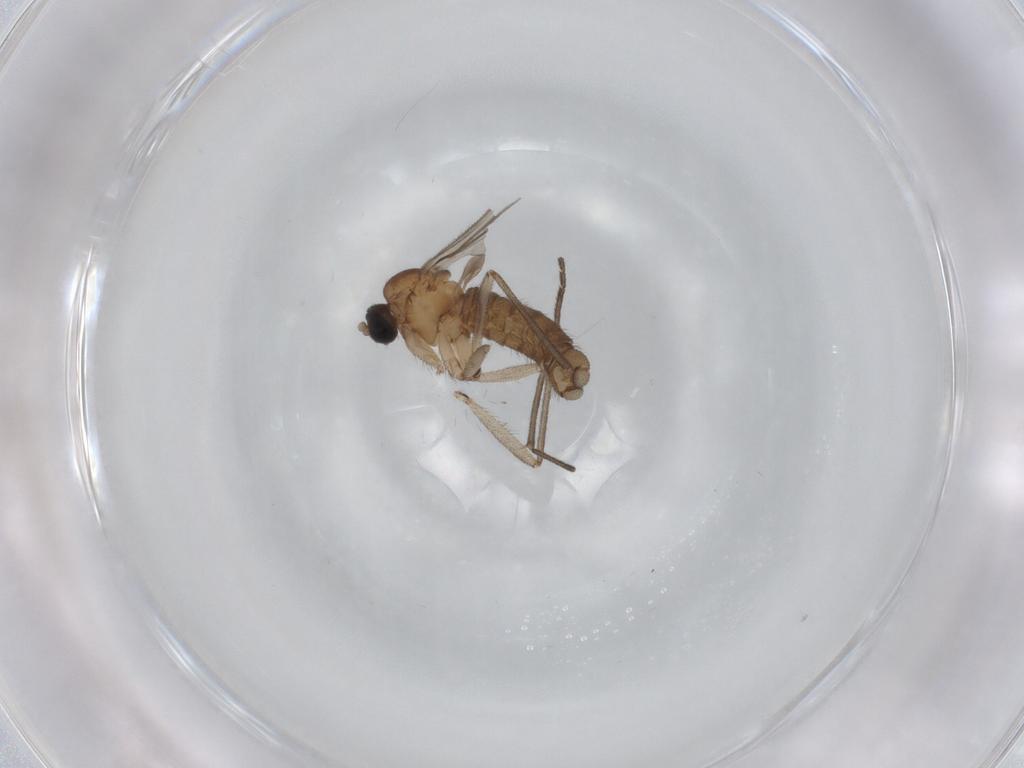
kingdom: Animalia
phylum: Arthropoda
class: Insecta
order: Diptera
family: Sciaridae
